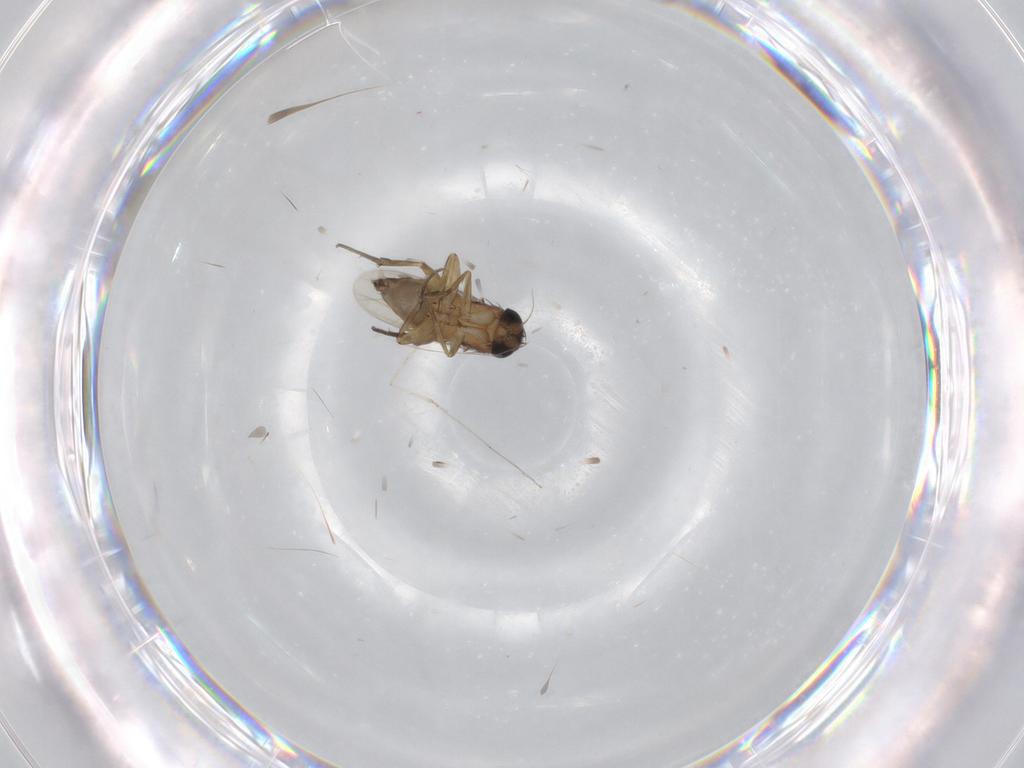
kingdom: Animalia
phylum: Arthropoda
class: Insecta
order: Diptera
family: Phoridae
